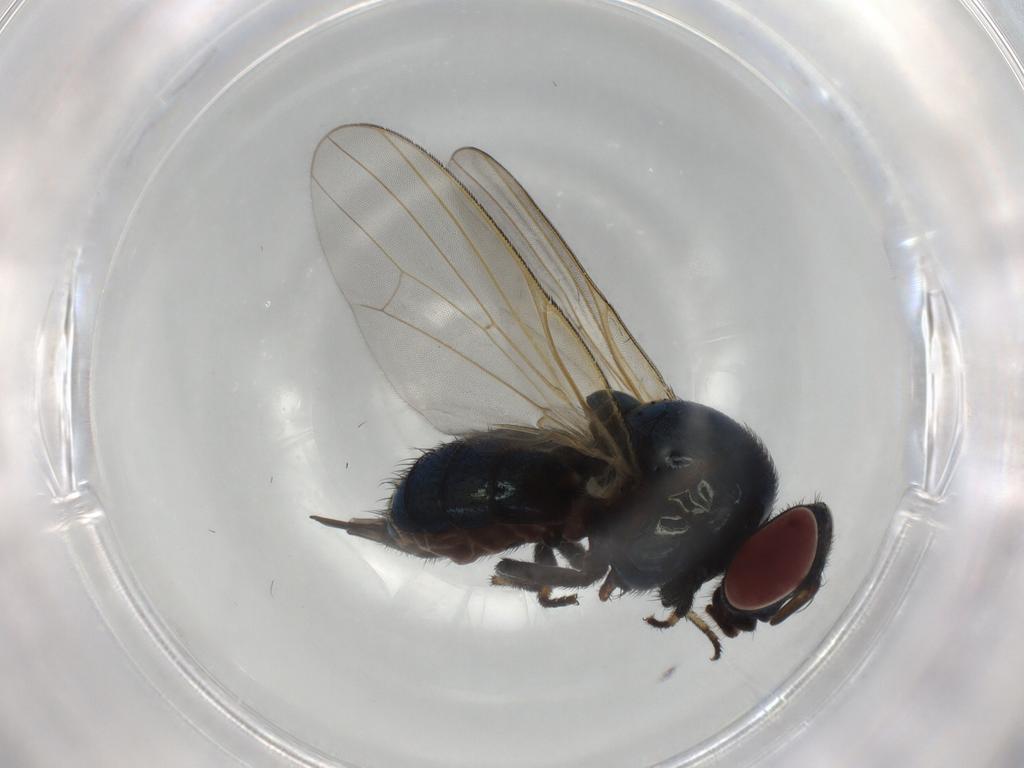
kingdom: Animalia
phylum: Arthropoda
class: Insecta
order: Diptera
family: Lonchaeidae
